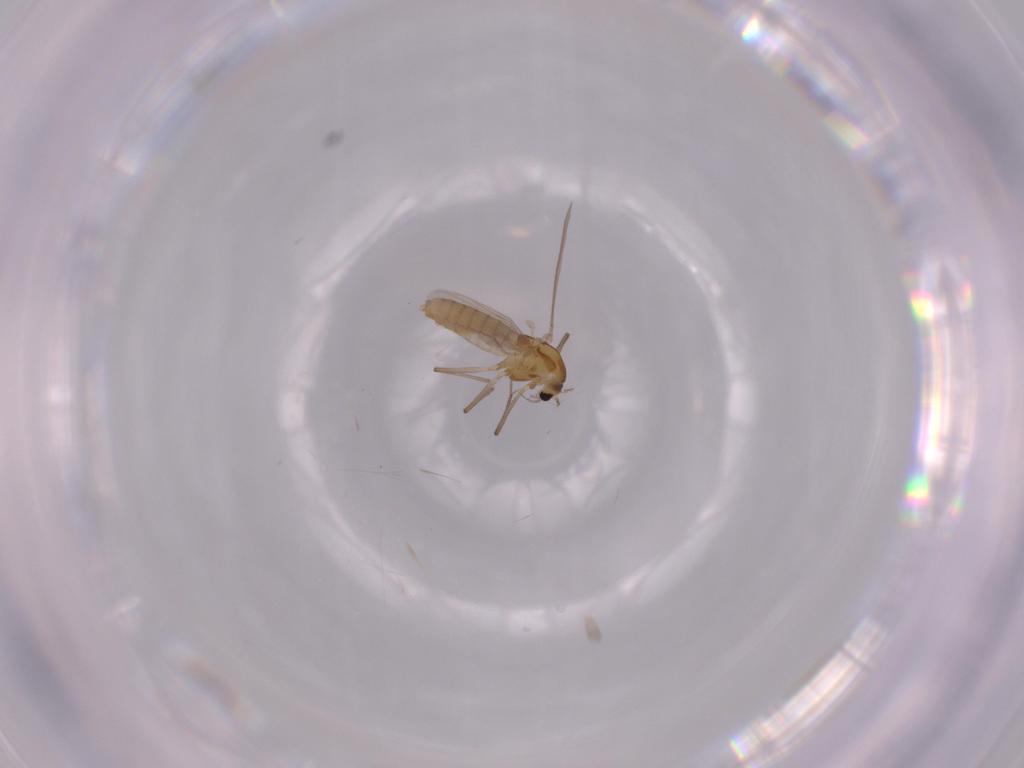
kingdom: Animalia
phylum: Arthropoda
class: Insecta
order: Diptera
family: Chironomidae
